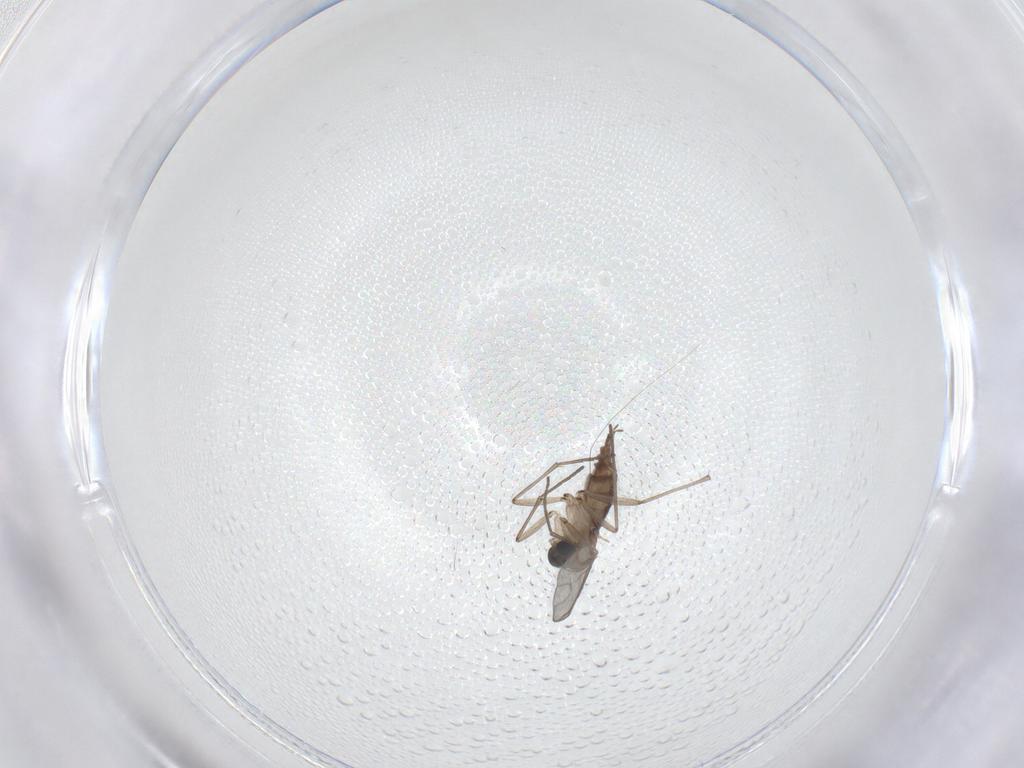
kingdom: Animalia
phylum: Arthropoda
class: Insecta
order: Diptera
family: Sciaridae
